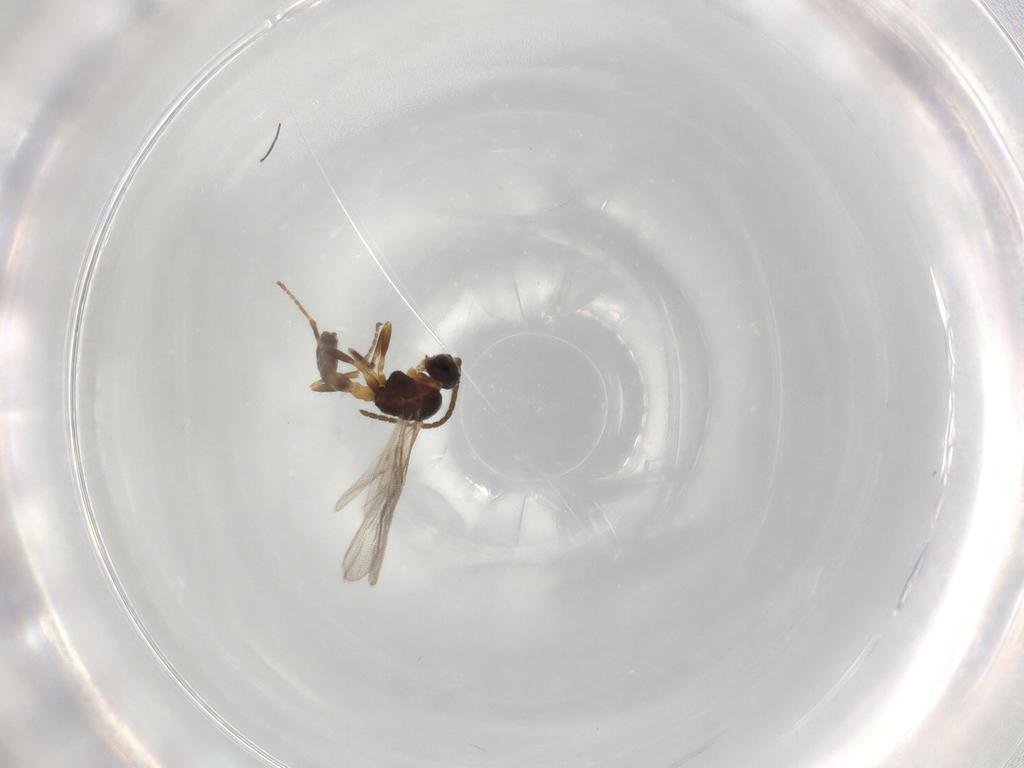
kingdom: Animalia
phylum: Arthropoda
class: Insecta
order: Hymenoptera
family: Braconidae
